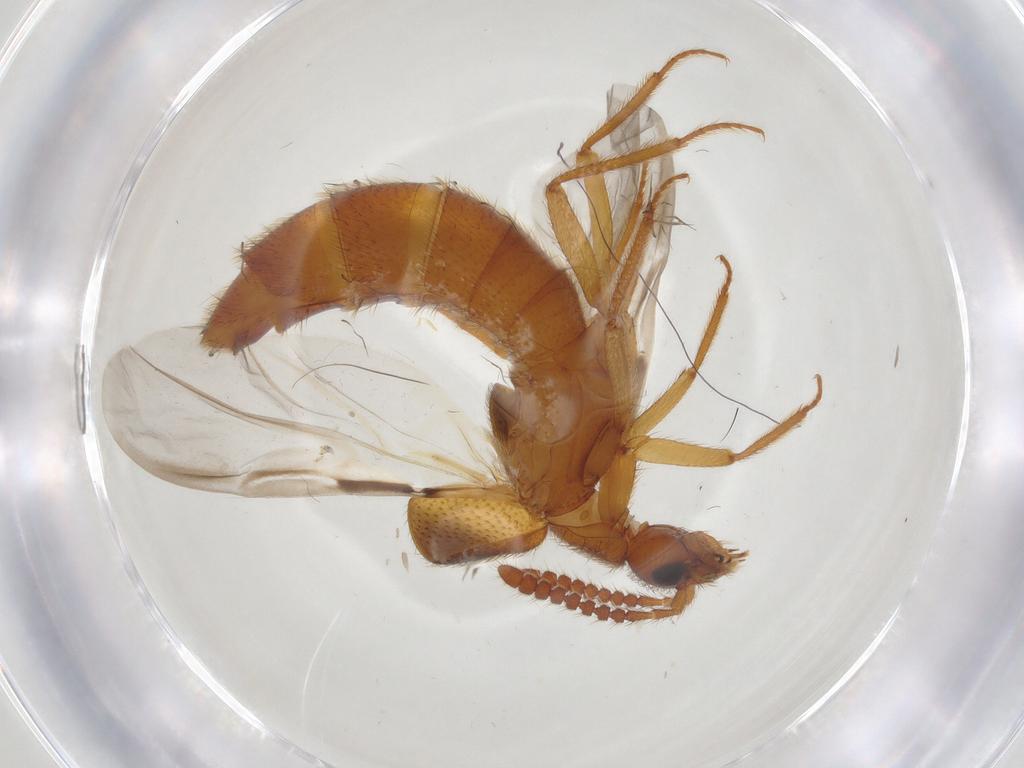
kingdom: Animalia
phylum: Arthropoda
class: Insecta
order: Coleoptera
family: Staphylinidae
